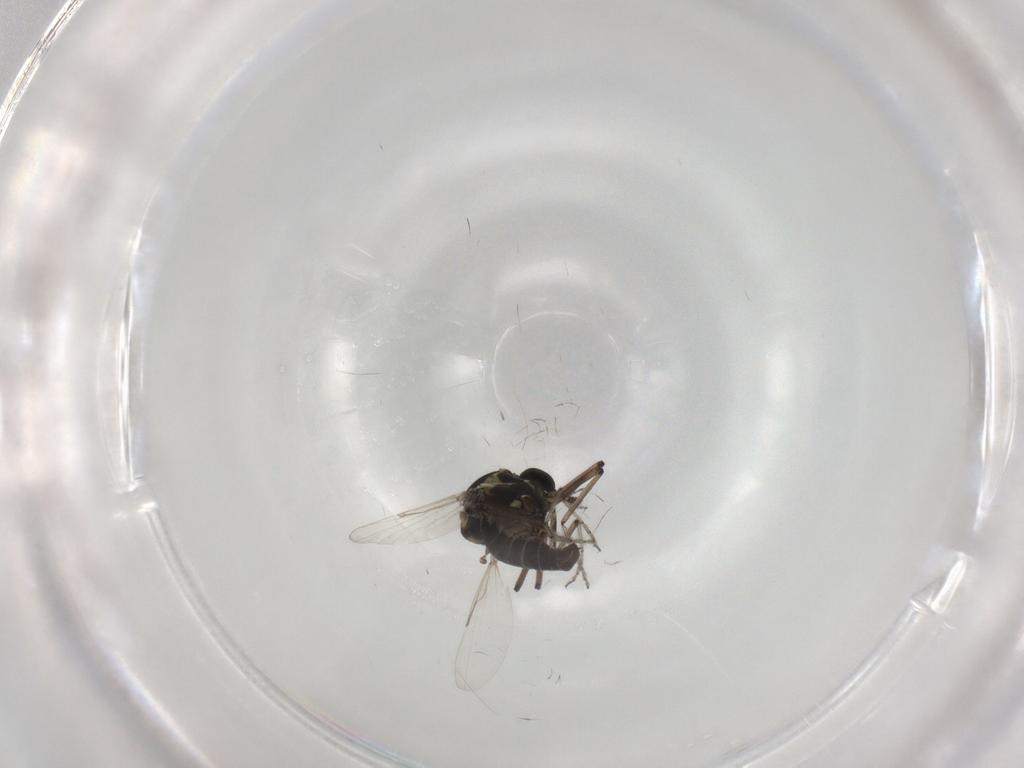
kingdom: Animalia
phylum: Arthropoda
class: Insecta
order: Diptera
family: Ceratopogonidae
